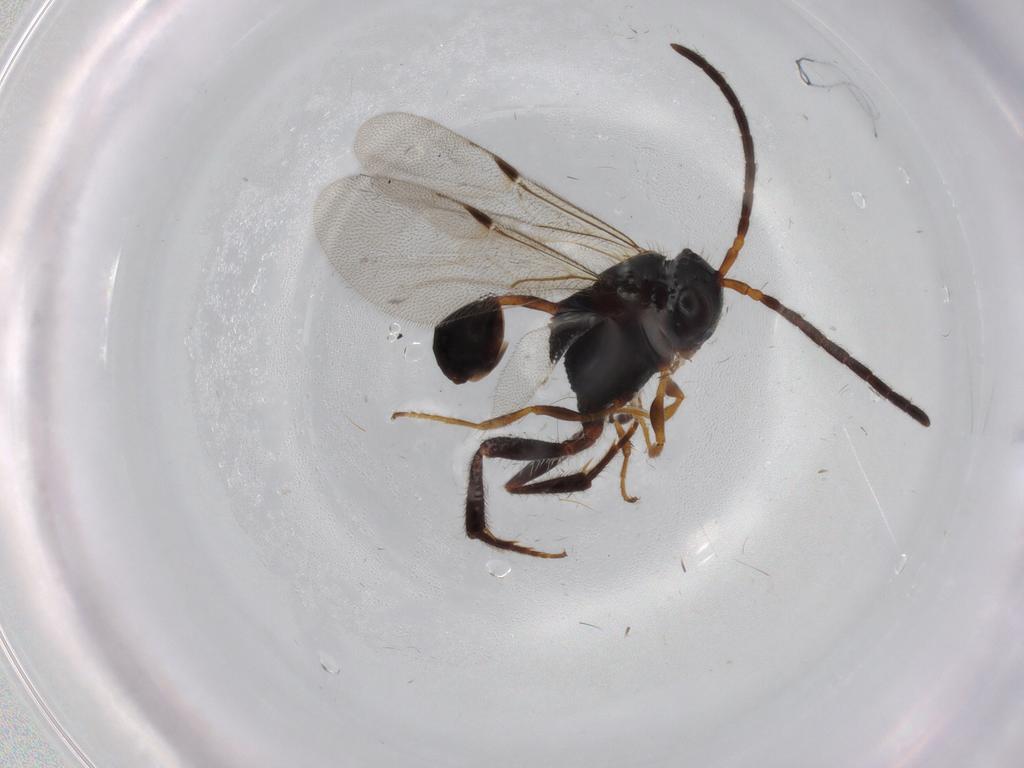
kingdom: Animalia
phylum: Arthropoda
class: Insecta
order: Hymenoptera
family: Evaniidae
